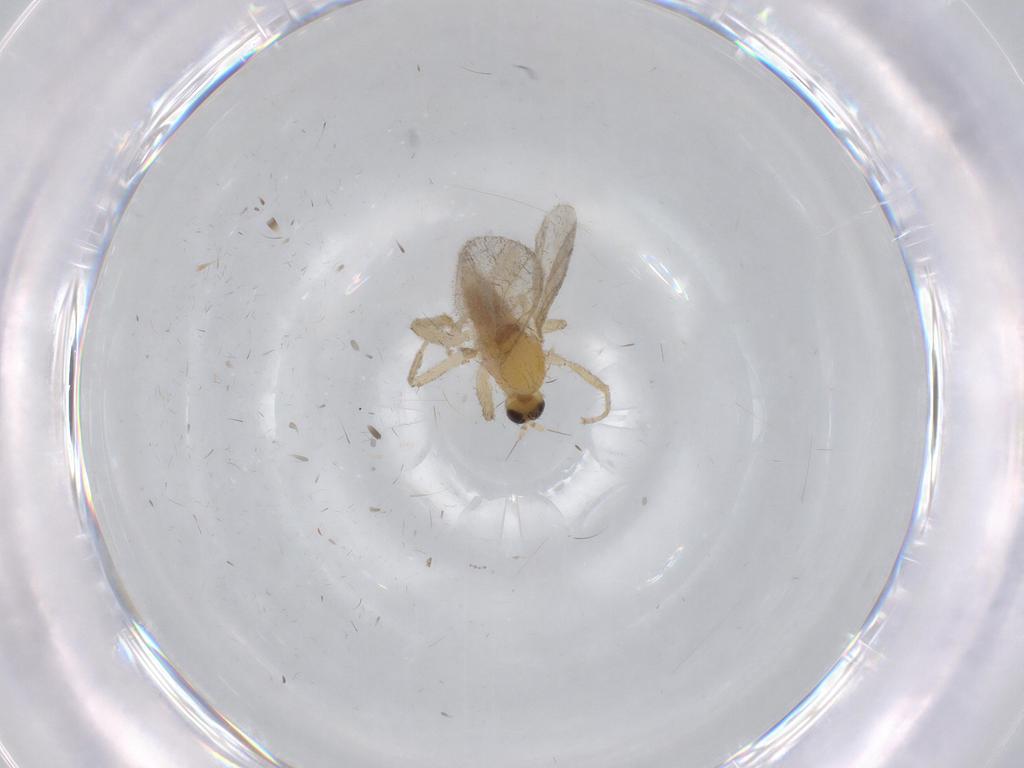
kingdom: Animalia
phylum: Arthropoda
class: Insecta
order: Diptera
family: Hybotidae
